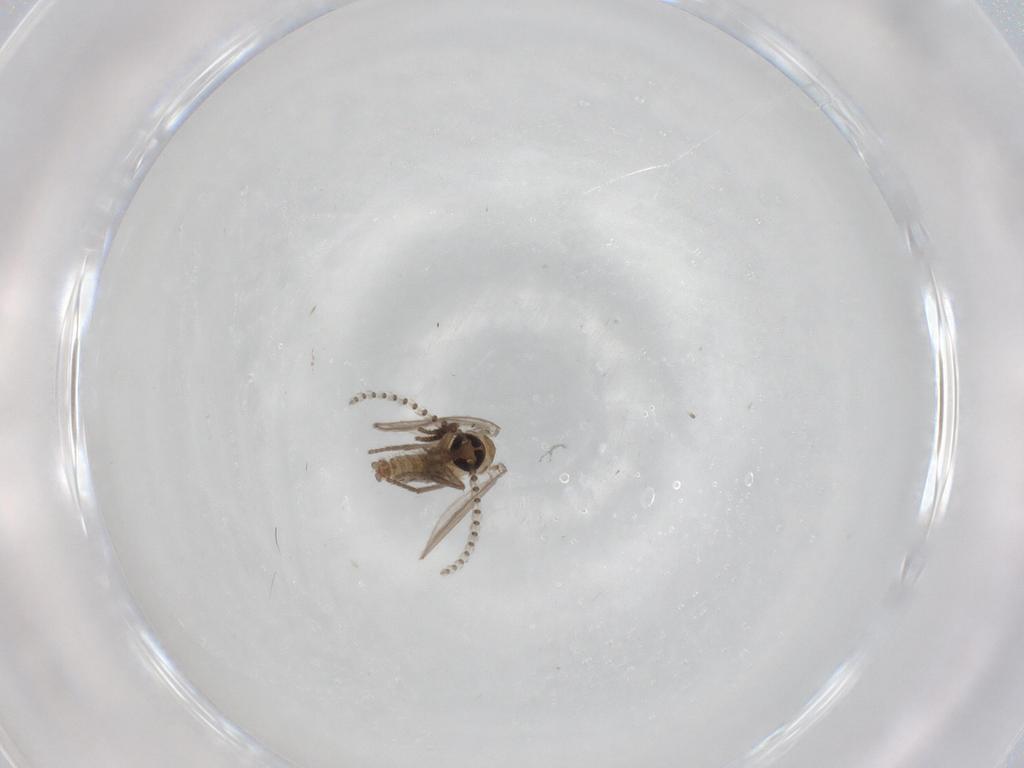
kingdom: Animalia
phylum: Arthropoda
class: Insecta
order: Diptera
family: Psychodidae
